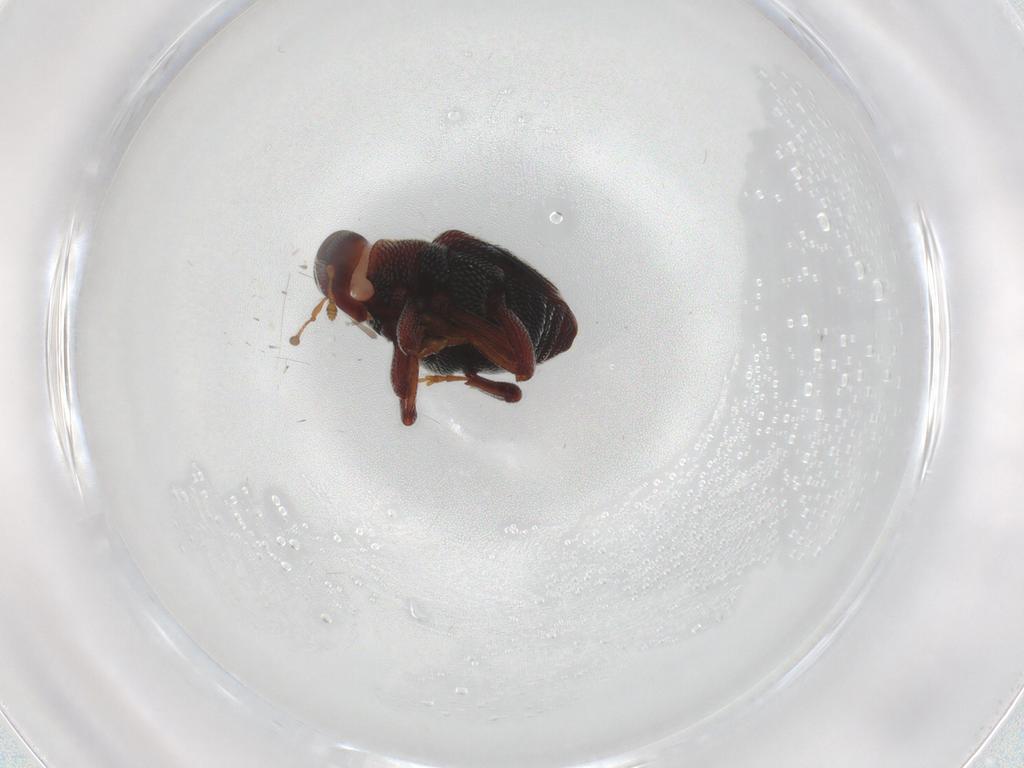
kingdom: Animalia
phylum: Arthropoda
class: Insecta
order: Coleoptera
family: Curculionidae
